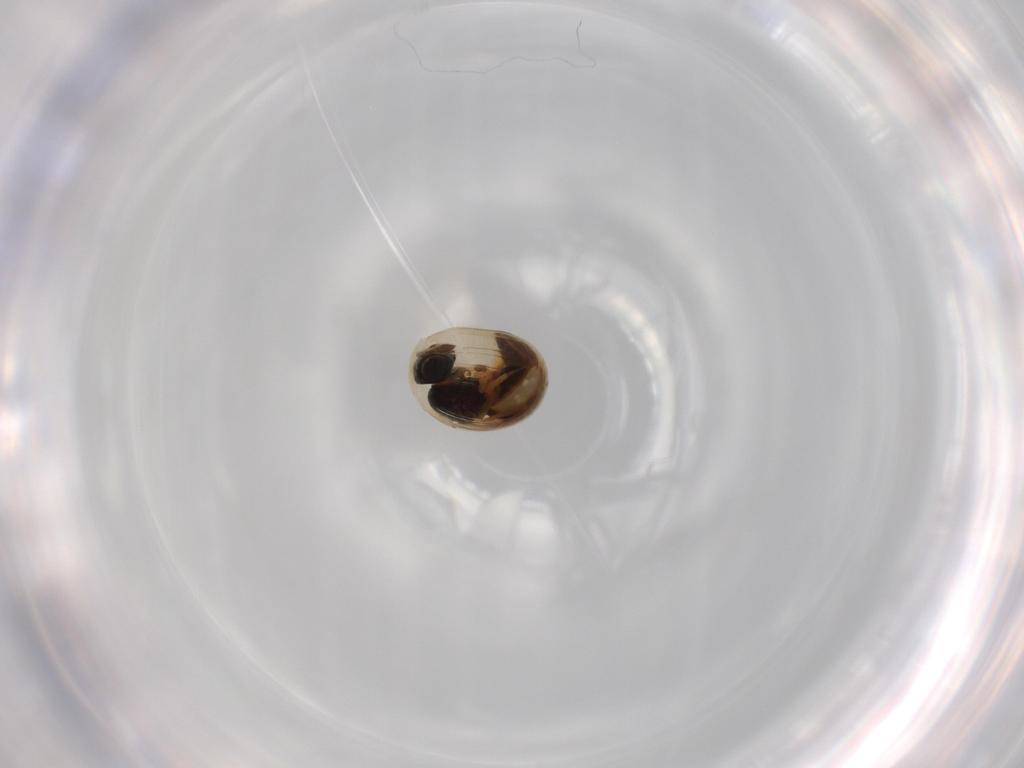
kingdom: Animalia
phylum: Arthropoda
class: Insecta
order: Hymenoptera
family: Scelionidae
